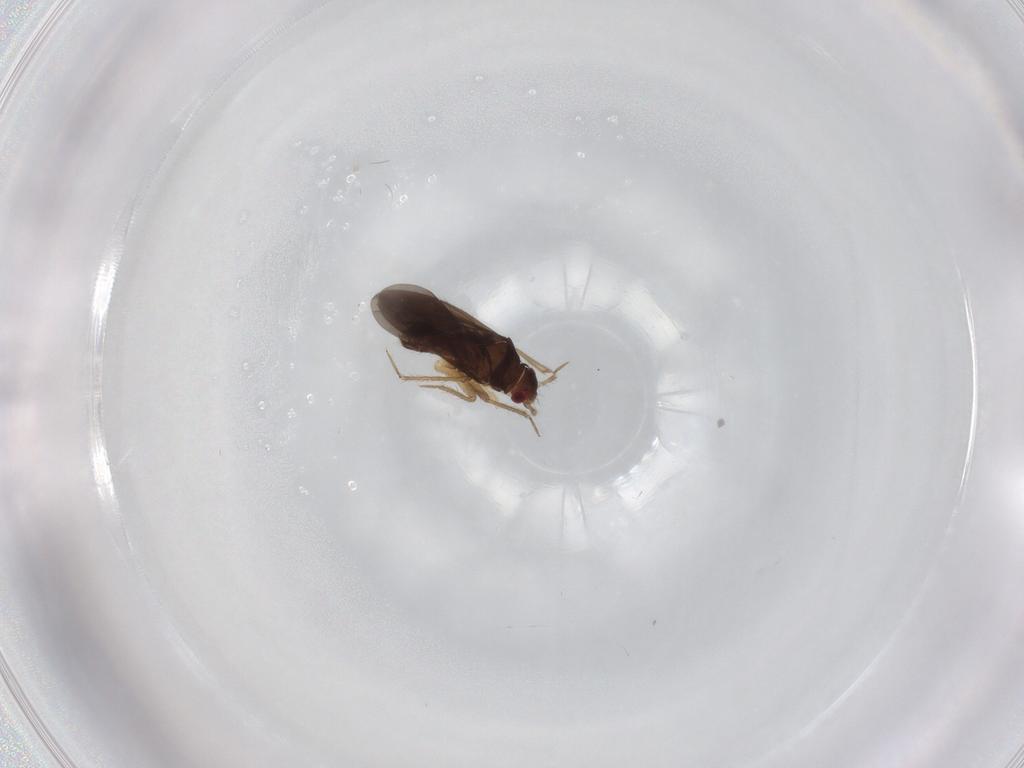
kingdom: Animalia
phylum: Arthropoda
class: Insecta
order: Hemiptera
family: Ceratocombidae
